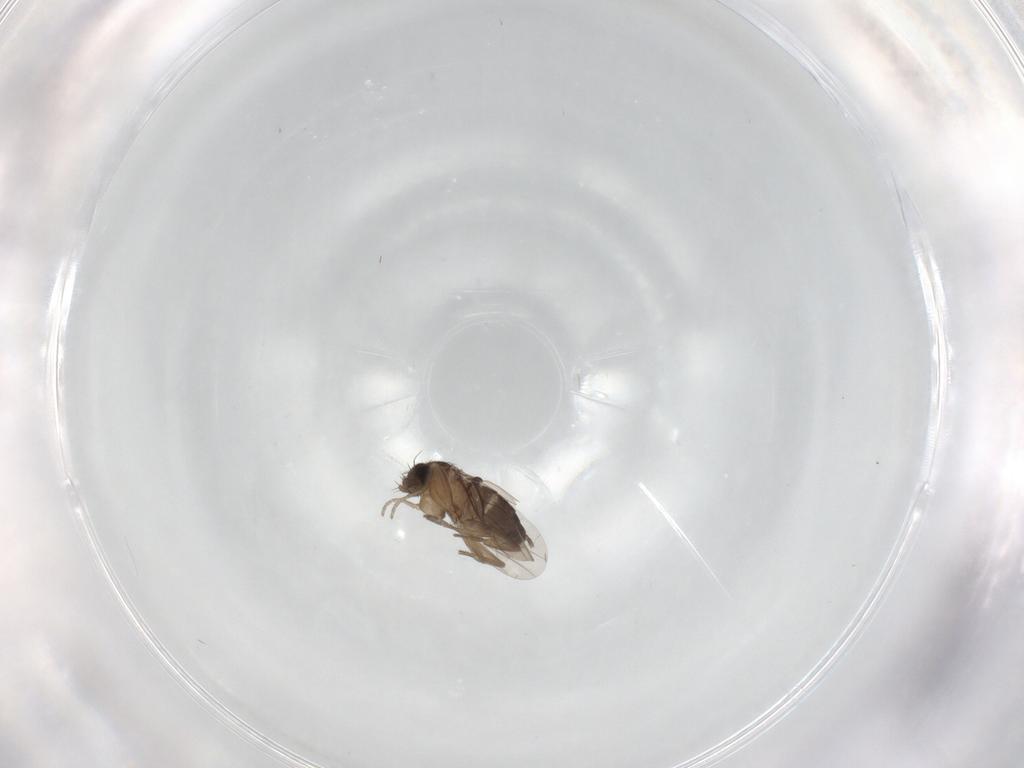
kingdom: Animalia
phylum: Arthropoda
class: Insecta
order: Diptera
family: Phoridae
